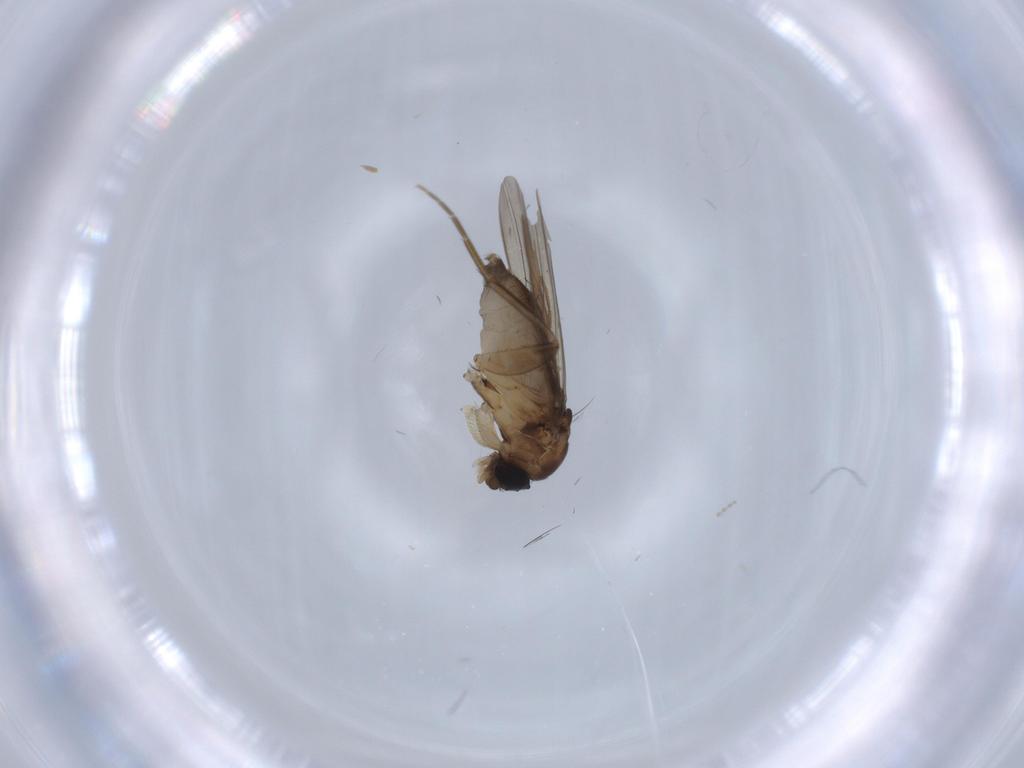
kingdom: Animalia
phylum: Arthropoda
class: Insecta
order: Diptera
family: Phoridae
